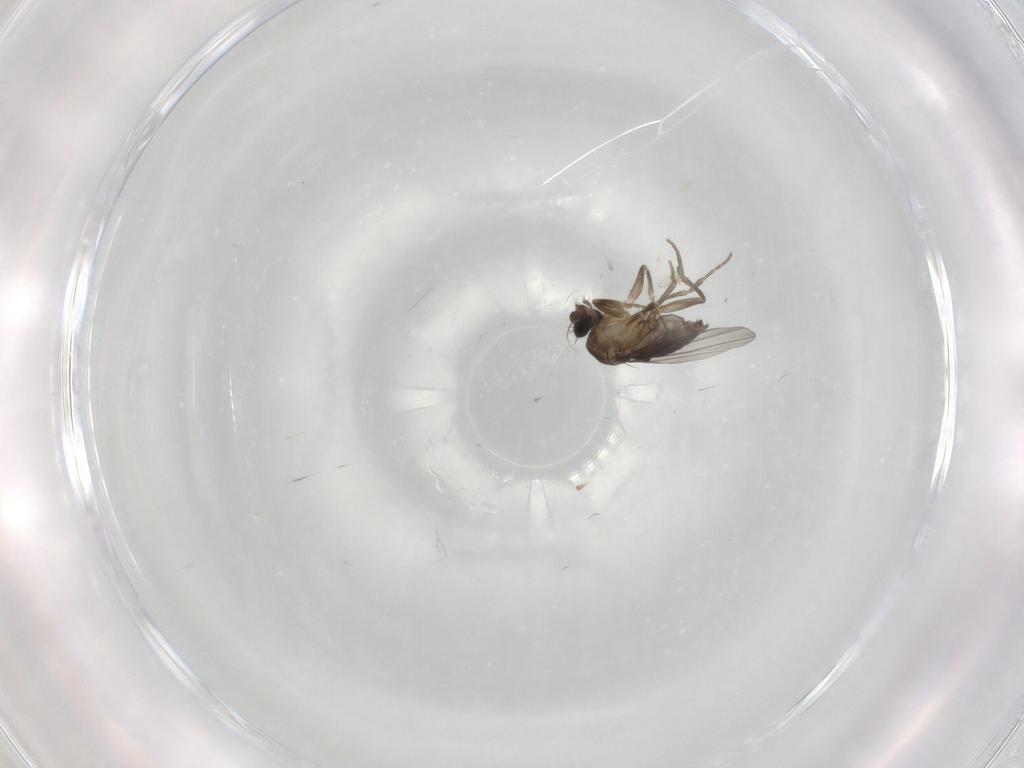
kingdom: Animalia
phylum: Arthropoda
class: Insecta
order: Diptera
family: Phoridae
